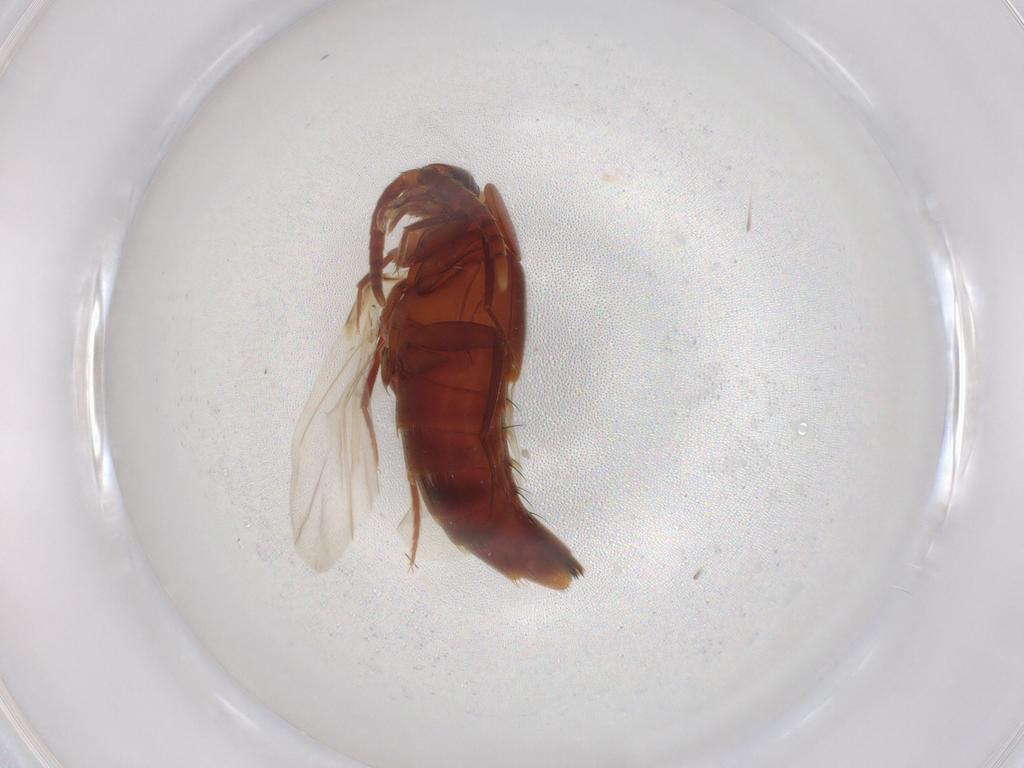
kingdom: Animalia
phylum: Arthropoda
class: Insecta
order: Coleoptera
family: Staphylinidae
